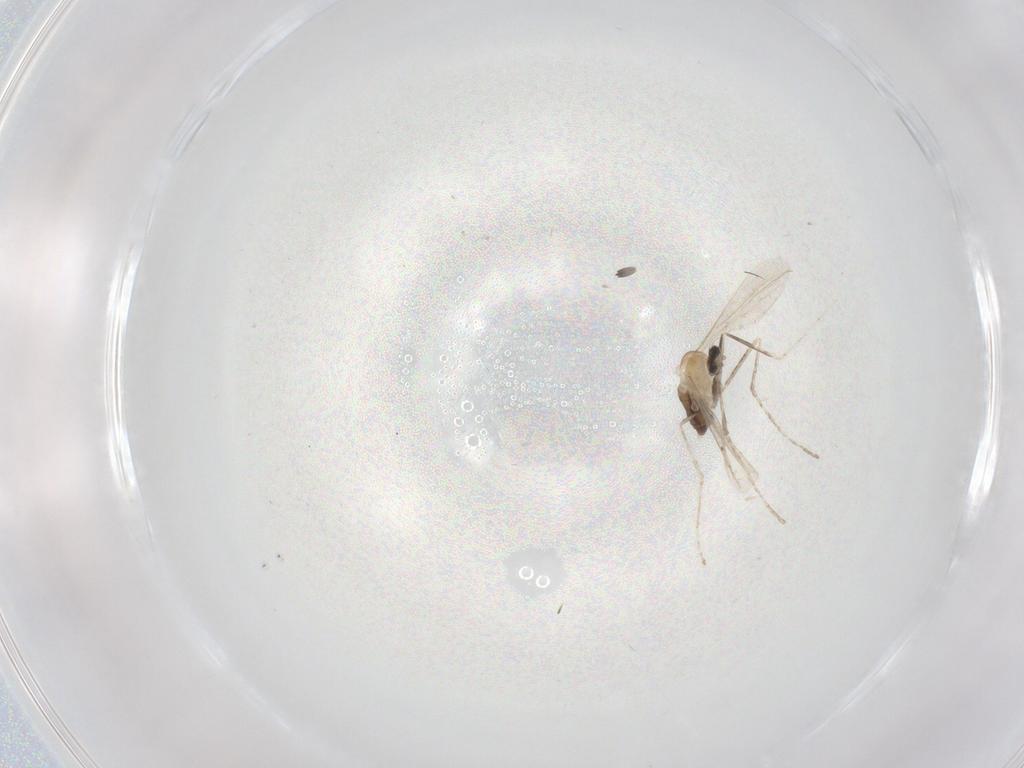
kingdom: Animalia
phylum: Arthropoda
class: Insecta
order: Diptera
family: Cecidomyiidae
